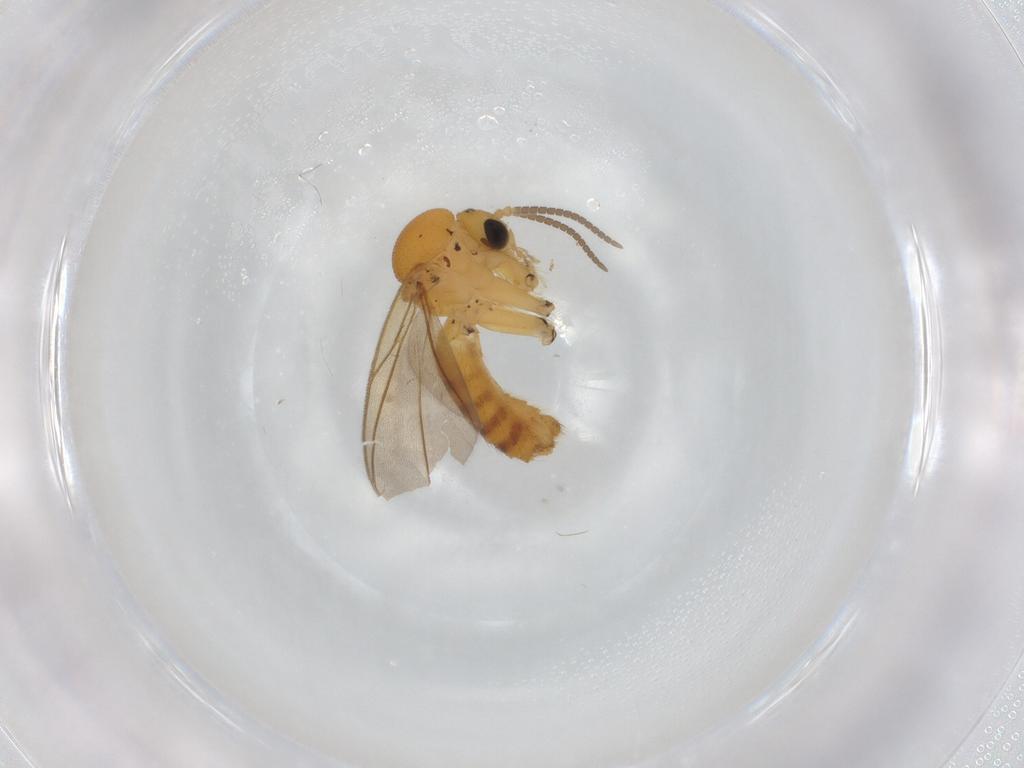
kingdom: Animalia
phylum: Arthropoda
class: Insecta
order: Diptera
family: Mycetophilidae
